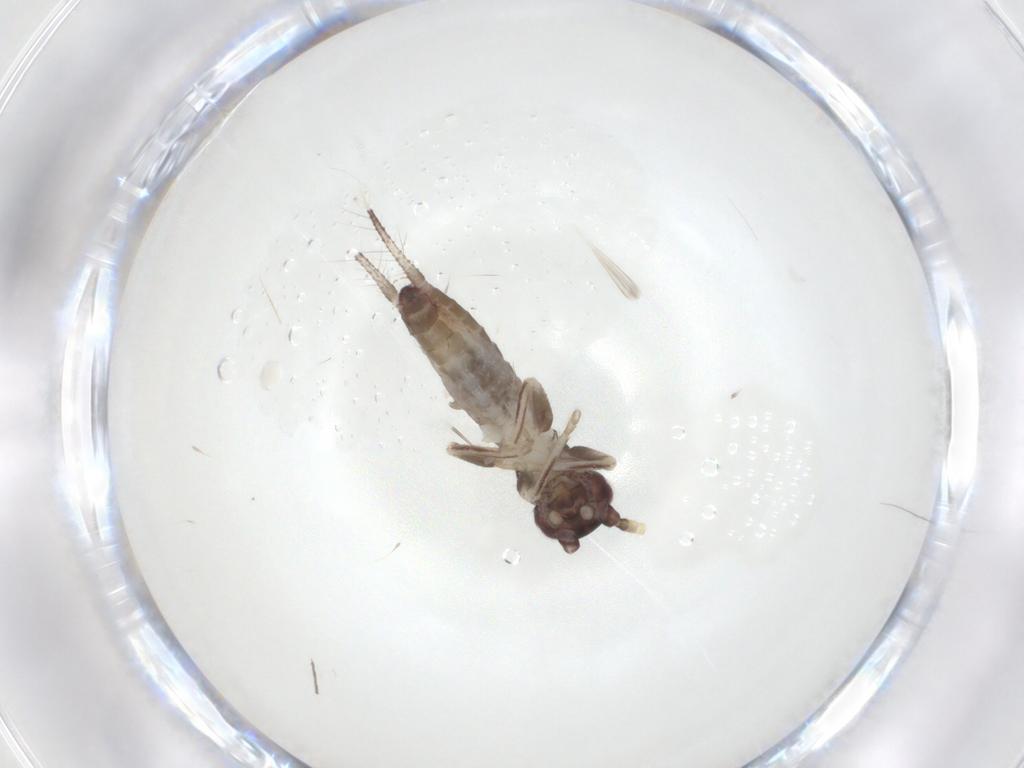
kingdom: Animalia
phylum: Arthropoda
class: Insecta
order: Orthoptera
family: Gryllidae
